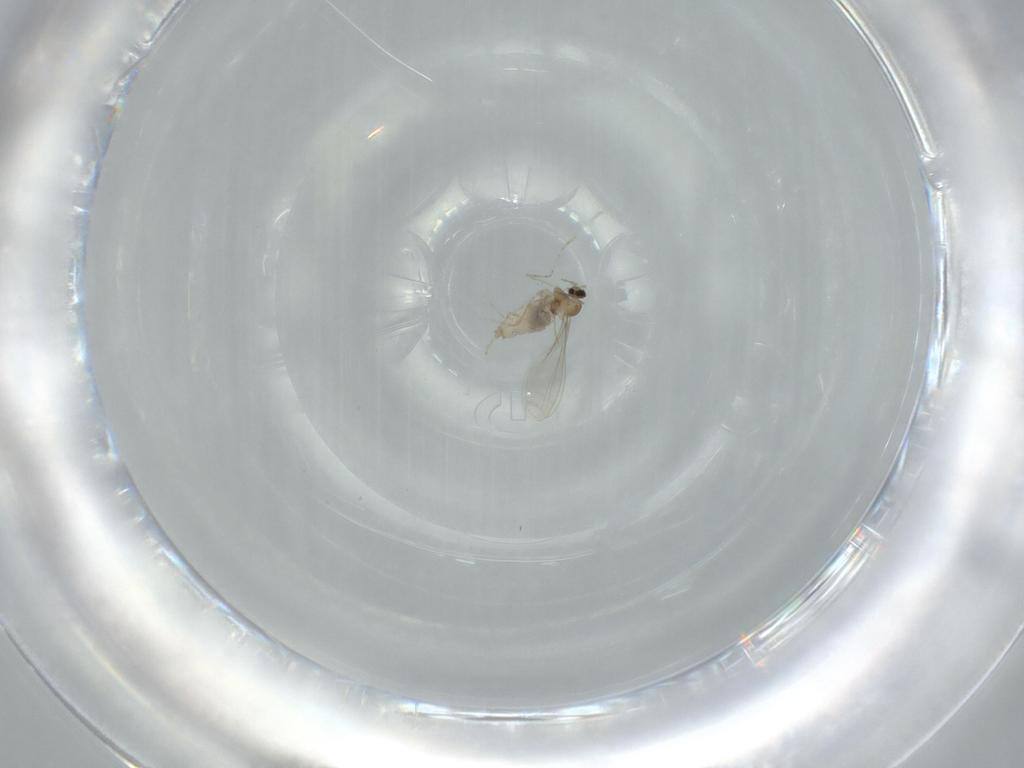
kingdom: Animalia
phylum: Arthropoda
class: Insecta
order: Diptera
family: Cecidomyiidae
